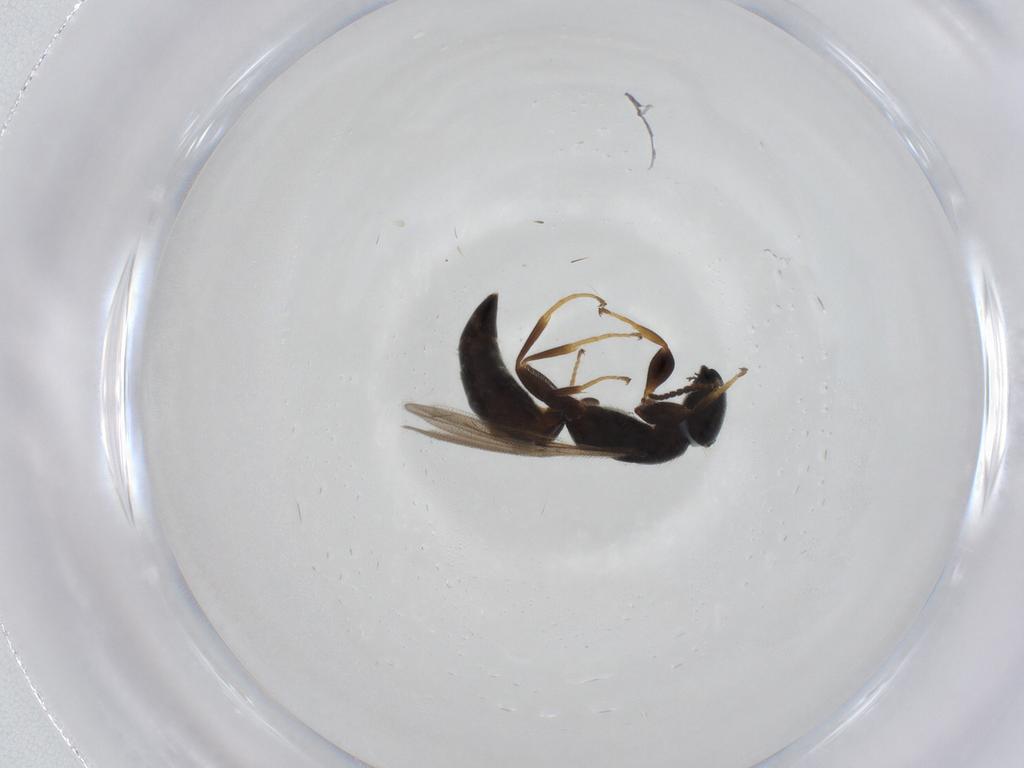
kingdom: Animalia
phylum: Arthropoda
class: Insecta
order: Hymenoptera
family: Bethylidae
